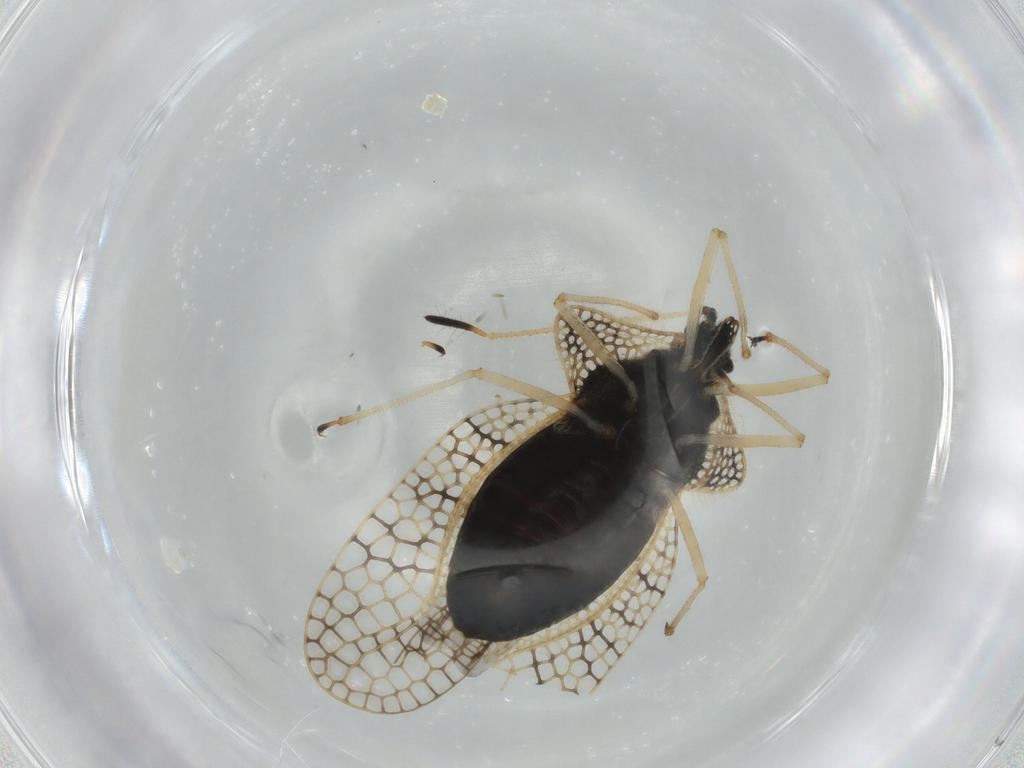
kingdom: Animalia
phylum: Arthropoda
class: Insecta
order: Hemiptera
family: Tingidae
